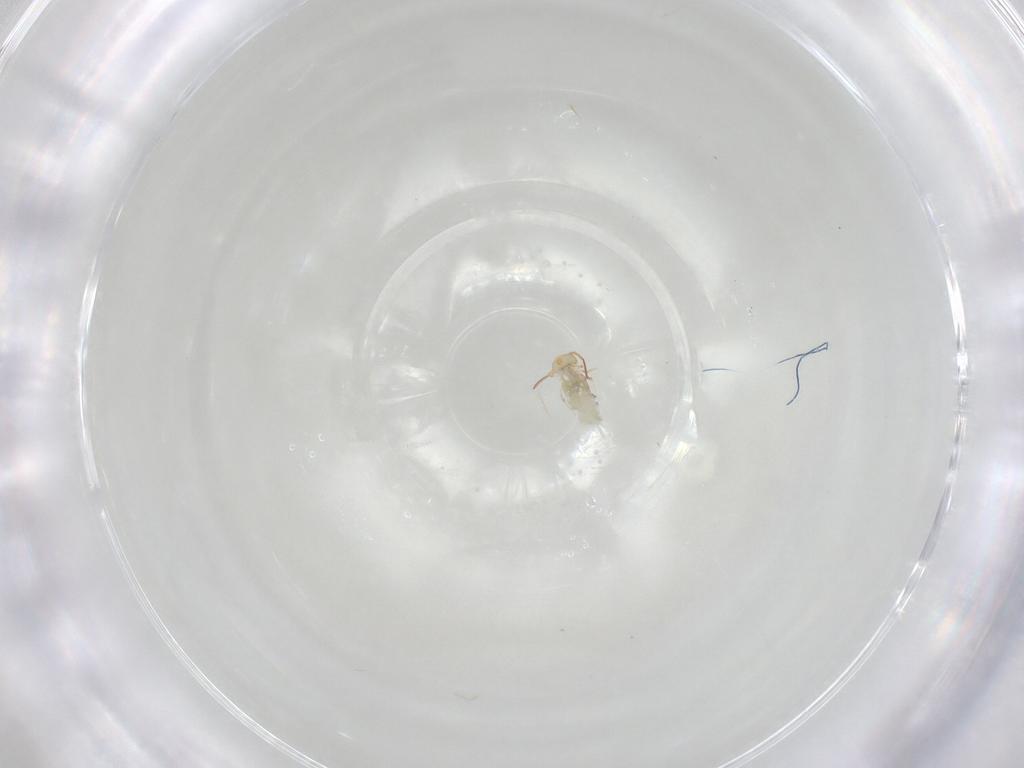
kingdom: Animalia
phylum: Arthropoda
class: Collembola
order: Symphypleona
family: Bourletiellidae
